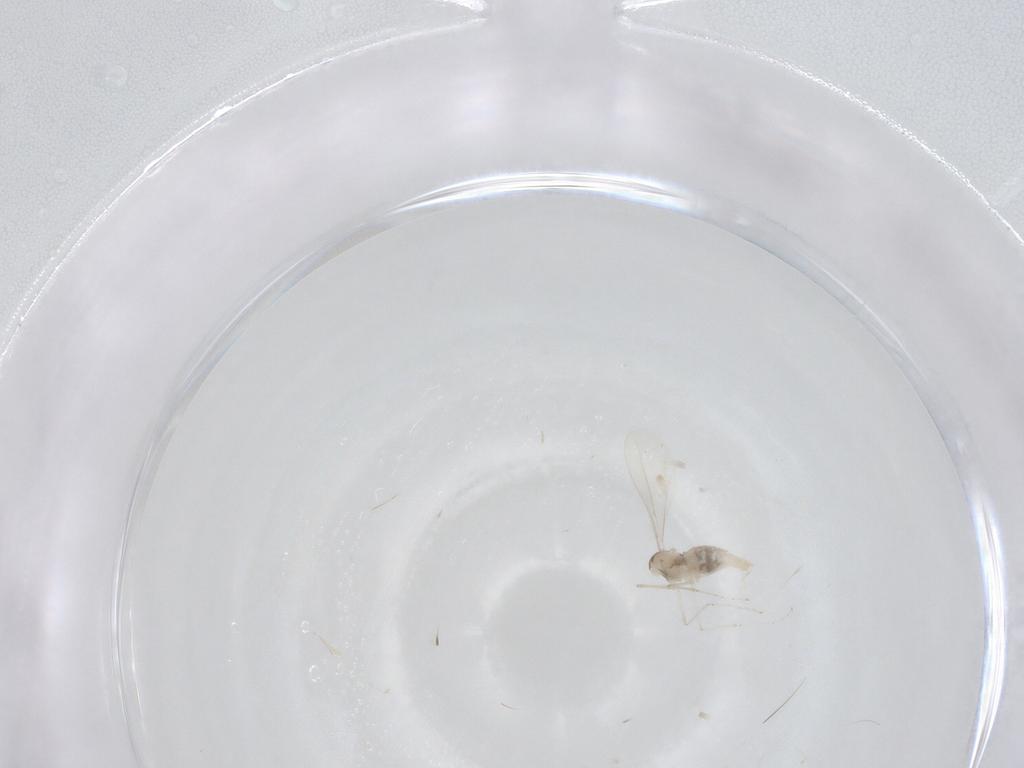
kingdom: Animalia
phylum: Arthropoda
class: Insecta
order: Diptera
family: Cecidomyiidae
